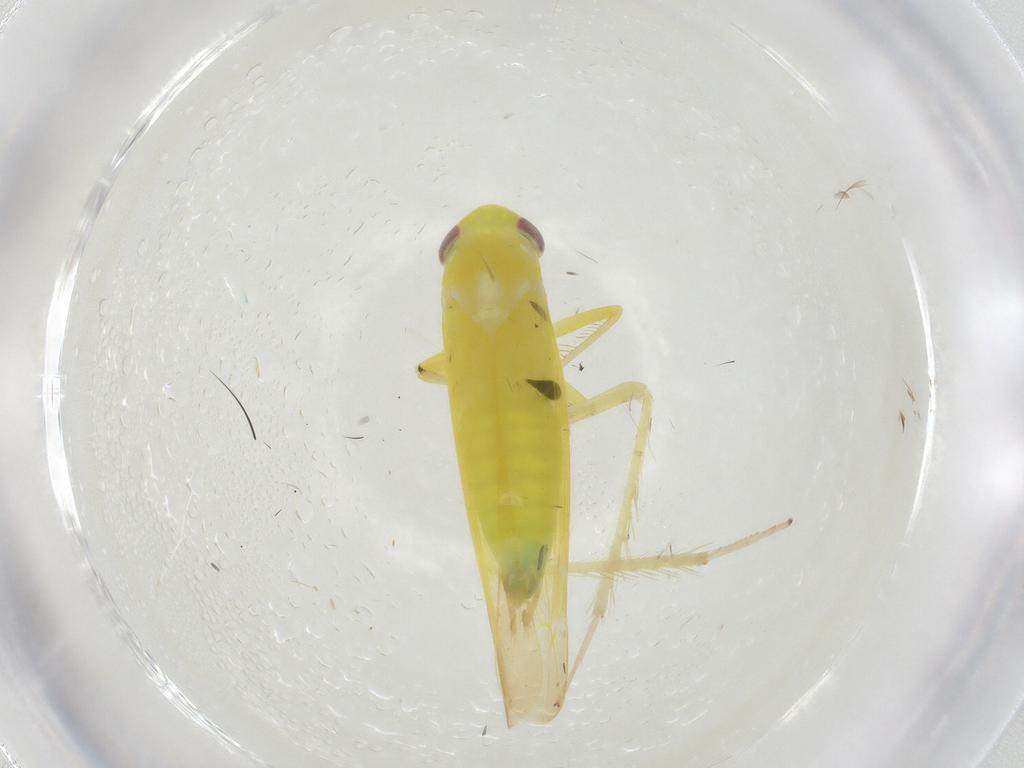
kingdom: Animalia
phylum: Arthropoda
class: Insecta
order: Hemiptera
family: Cicadellidae
